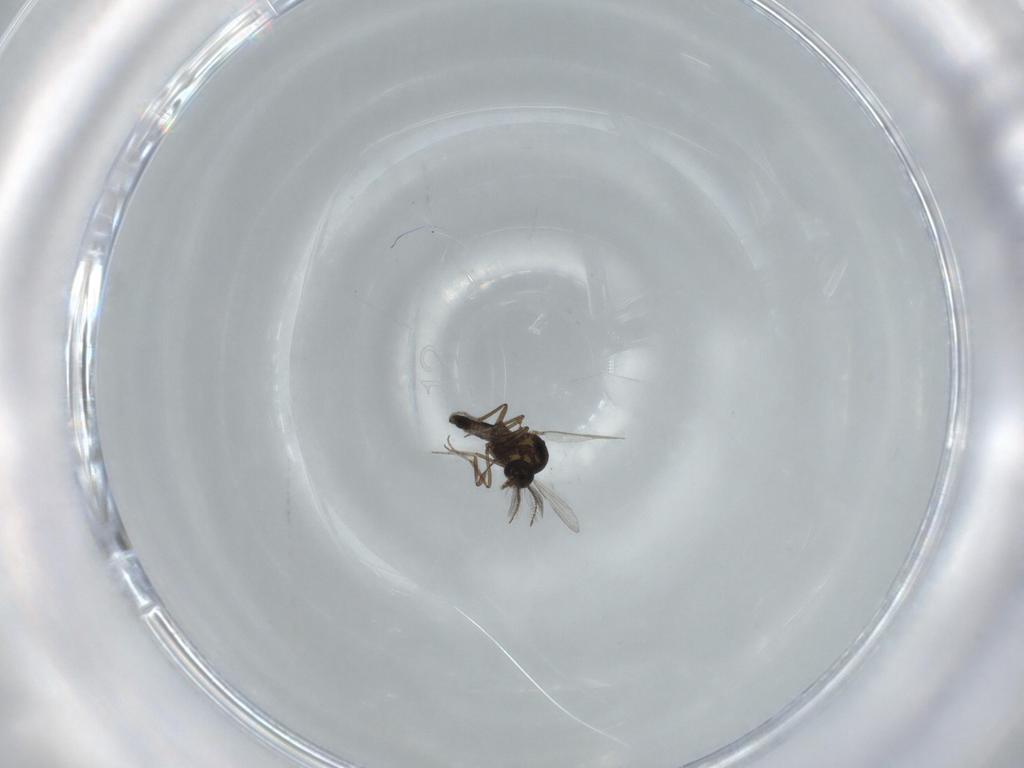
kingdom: Animalia
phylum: Arthropoda
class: Insecta
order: Diptera
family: Ceratopogonidae
